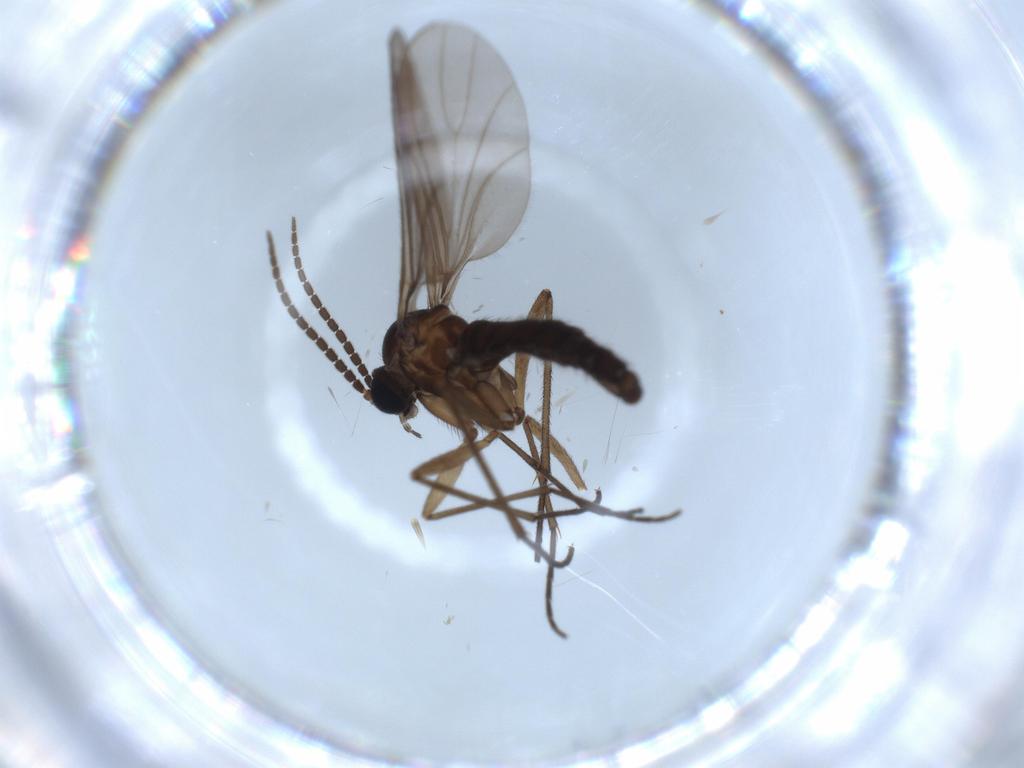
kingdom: Animalia
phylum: Arthropoda
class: Insecta
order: Diptera
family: Sciaridae
